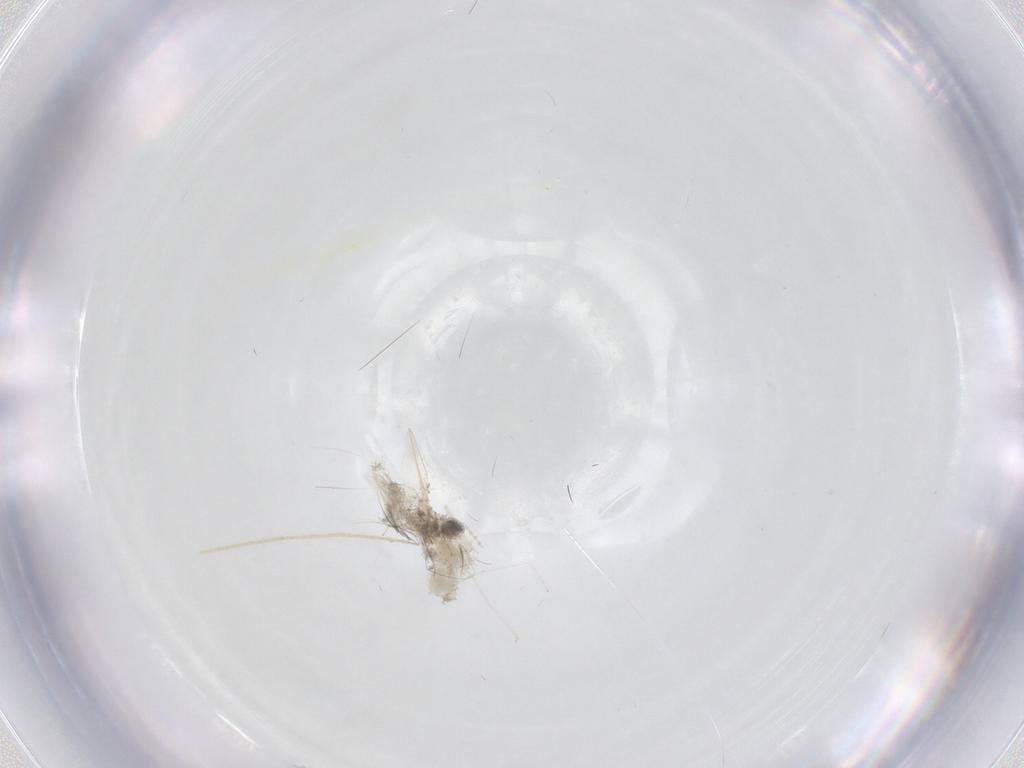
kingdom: Animalia
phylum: Arthropoda
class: Insecta
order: Diptera
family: Cecidomyiidae
